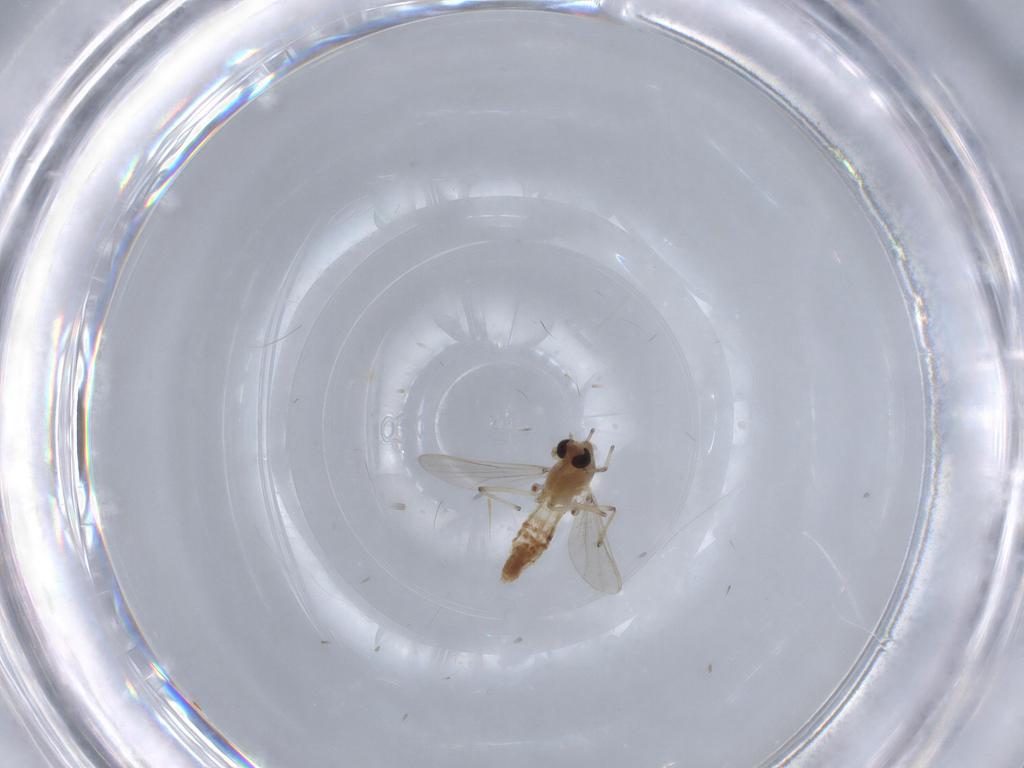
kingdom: Animalia
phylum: Arthropoda
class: Insecta
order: Diptera
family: Chironomidae
